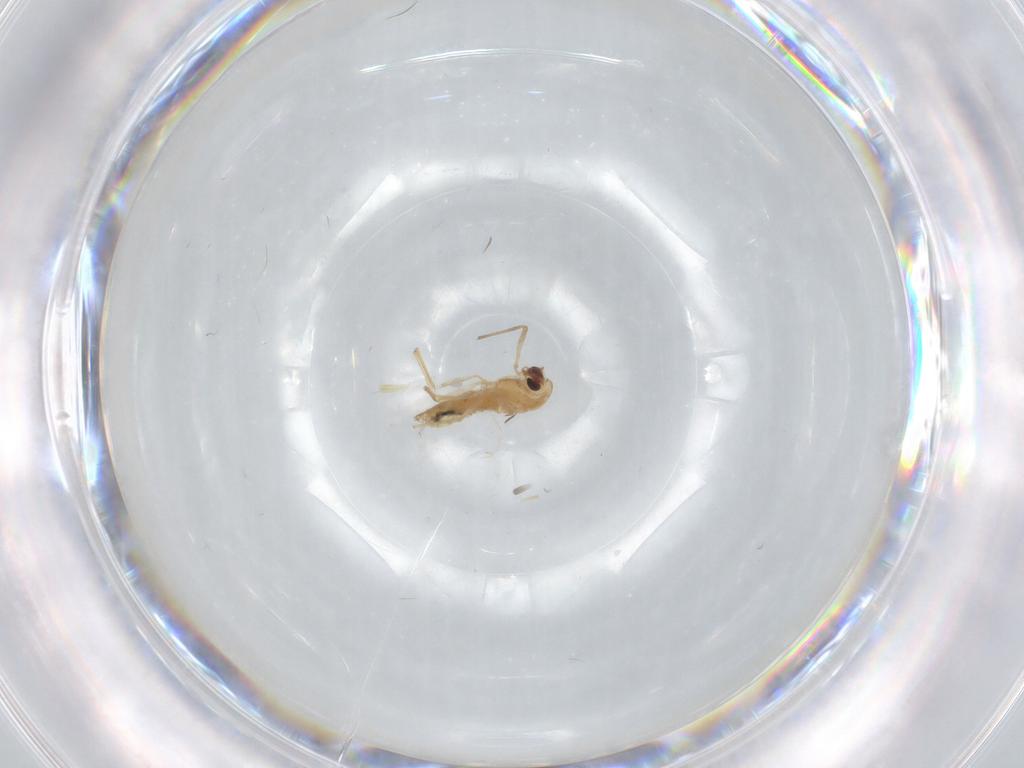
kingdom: Animalia
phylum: Arthropoda
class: Insecta
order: Diptera
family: Chironomidae
